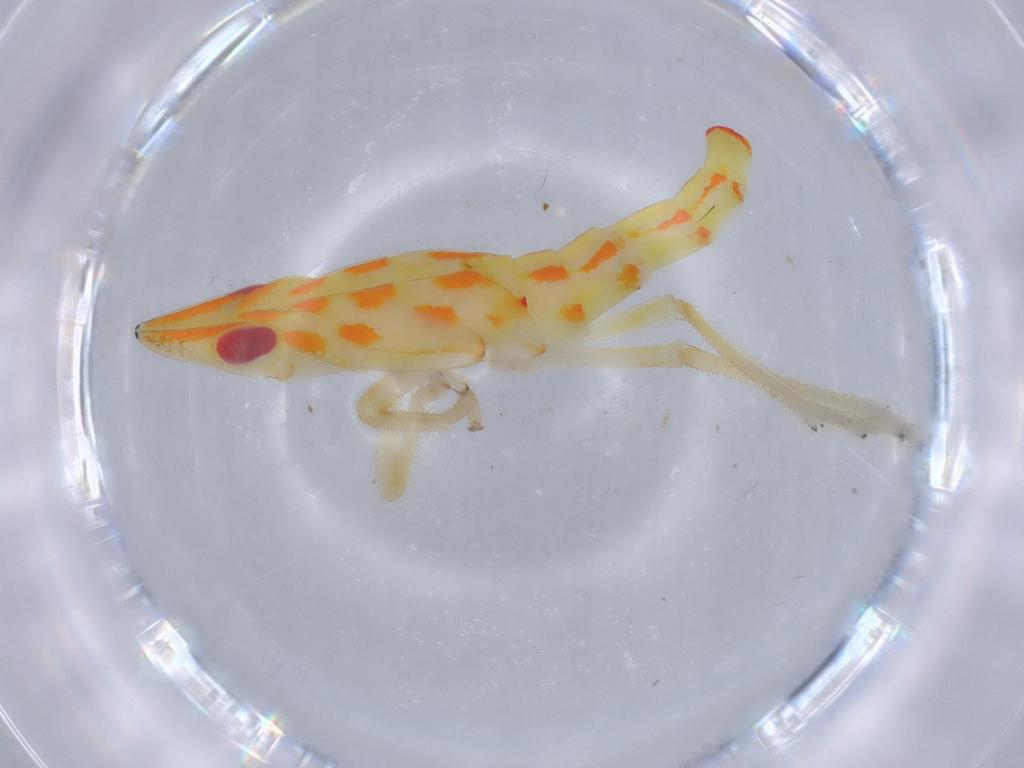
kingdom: Animalia
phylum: Arthropoda
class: Insecta
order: Hemiptera
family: Tropiduchidae
